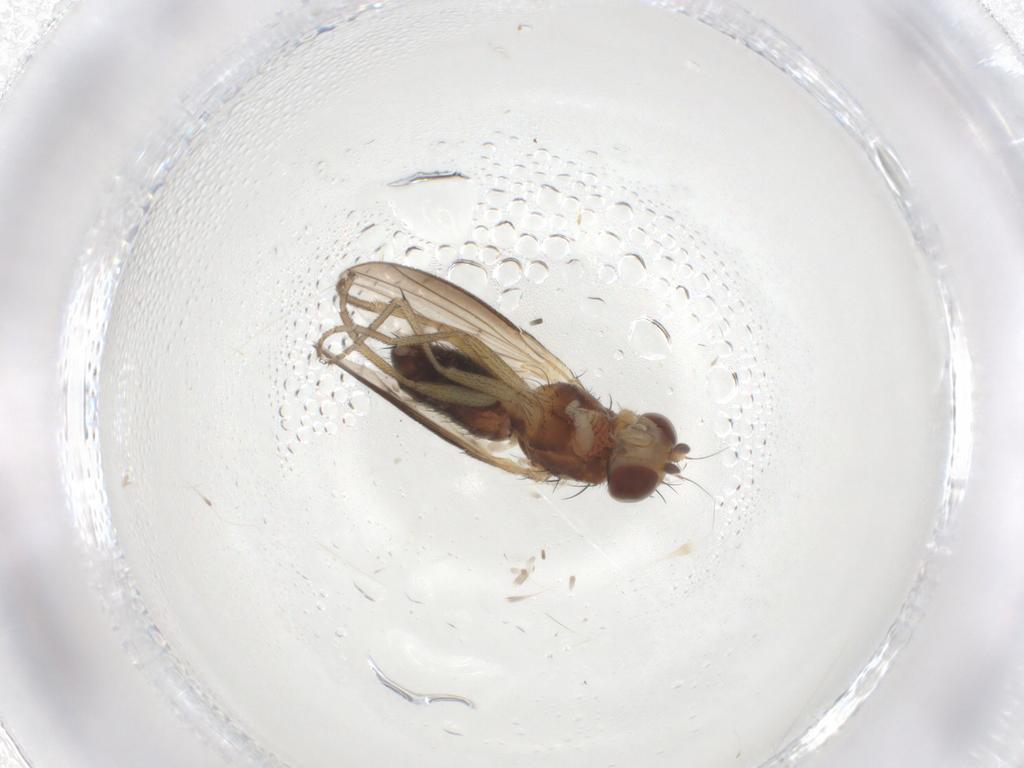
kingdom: Animalia
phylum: Arthropoda
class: Insecta
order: Diptera
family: Heleomyzidae
